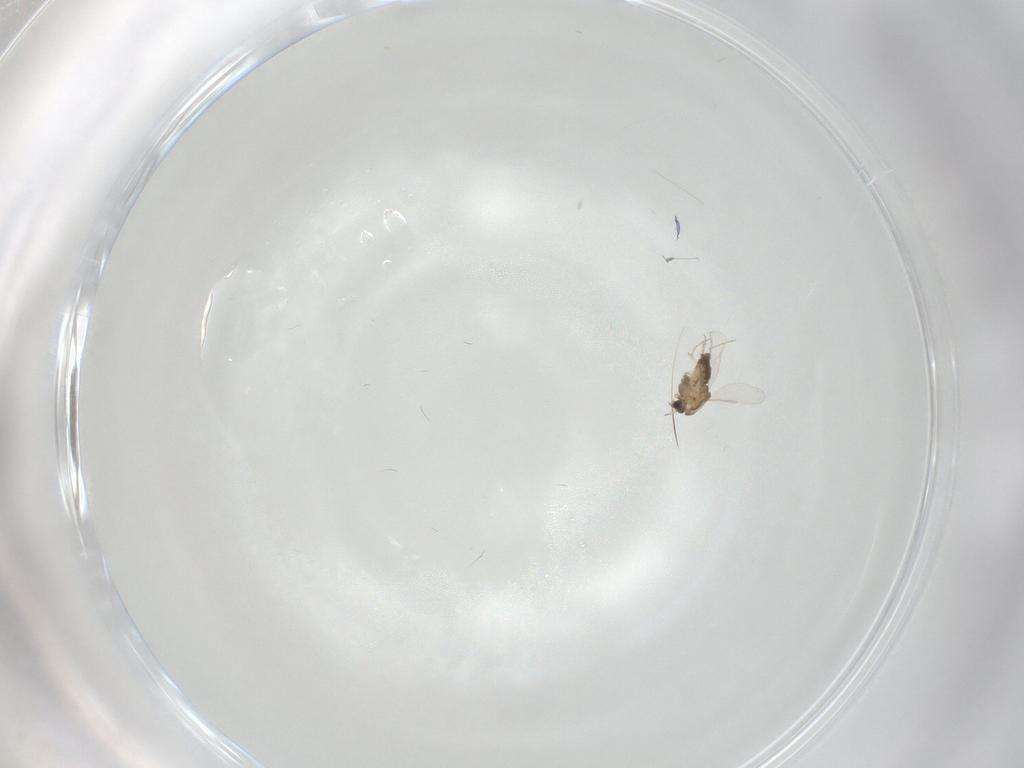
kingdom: Animalia
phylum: Arthropoda
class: Insecta
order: Diptera
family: Chironomidae
